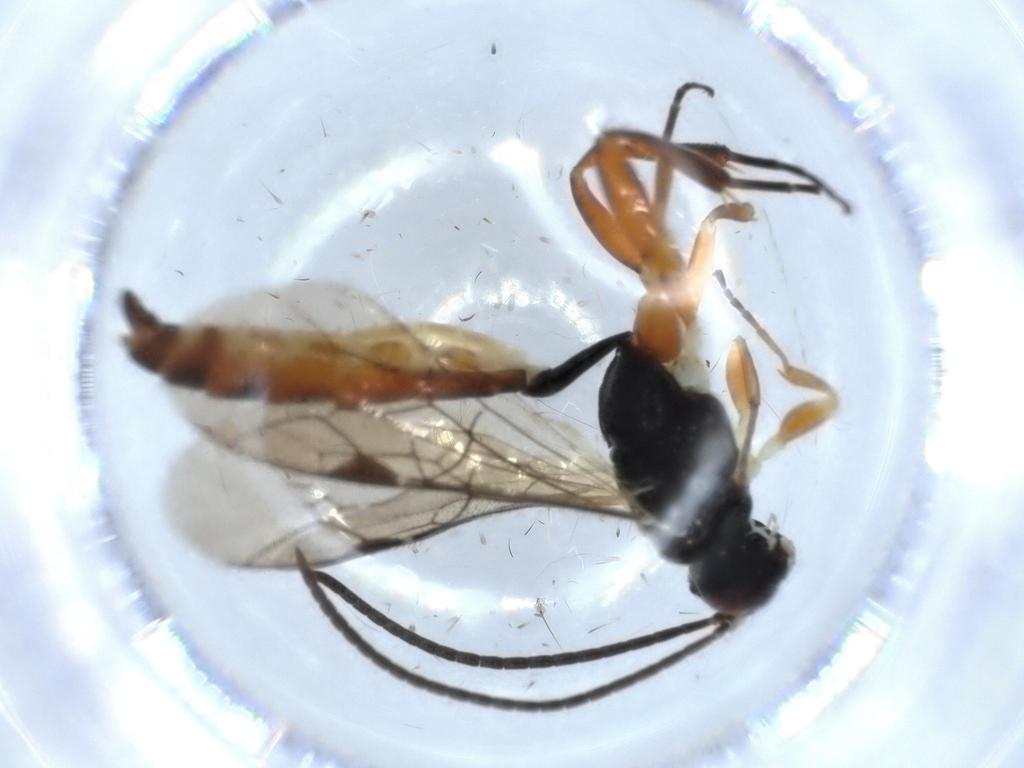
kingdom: Animalia
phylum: Arthropoda
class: Insecta
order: Hymenoptera
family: Ichneumonidae
